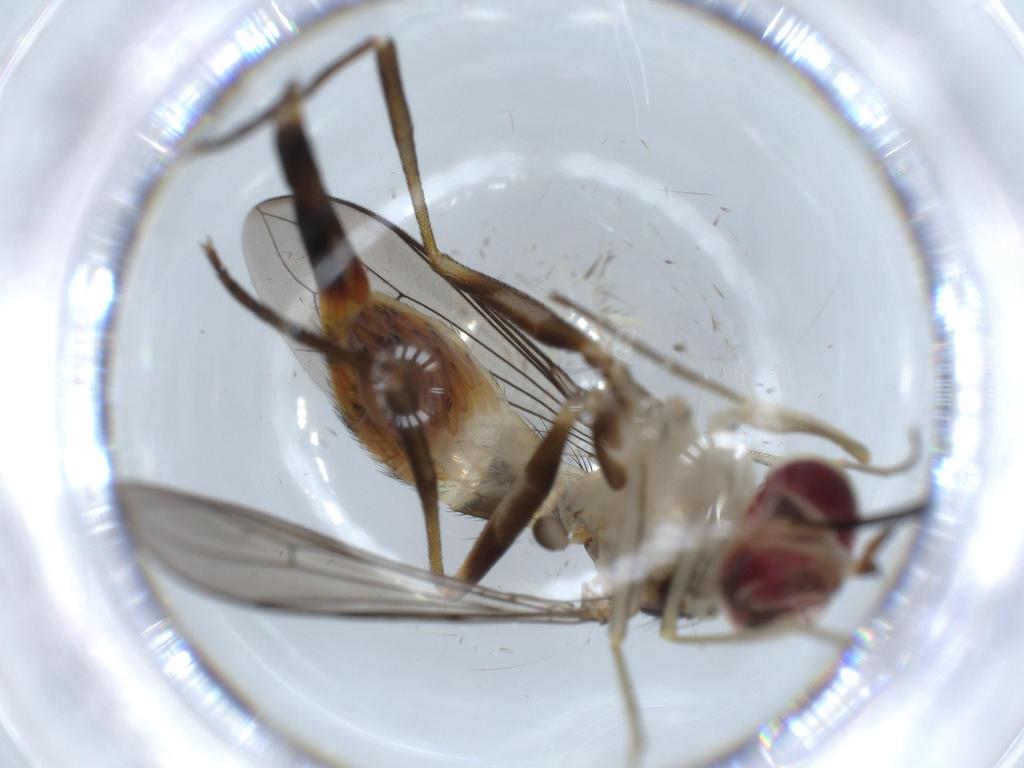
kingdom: Animalia
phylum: Arthropoda
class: Insecta
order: Diptera
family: Conopidae
